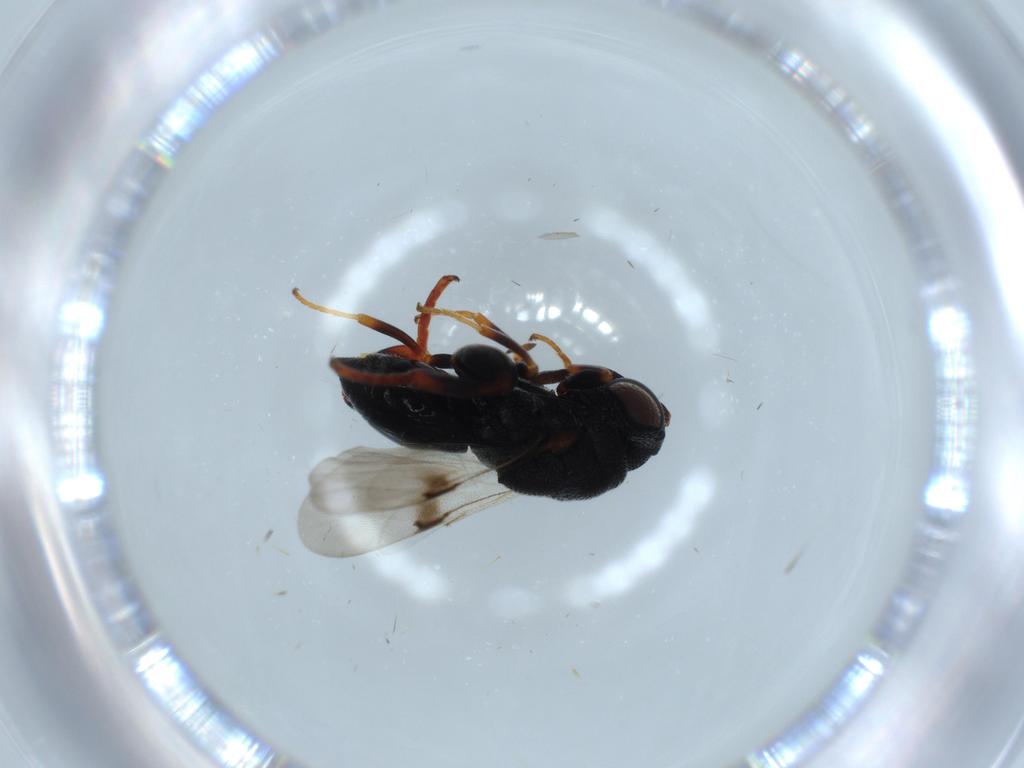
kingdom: Animalia
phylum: Arthropoda
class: Insecta
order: Hymenoptera
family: Scelionidae
